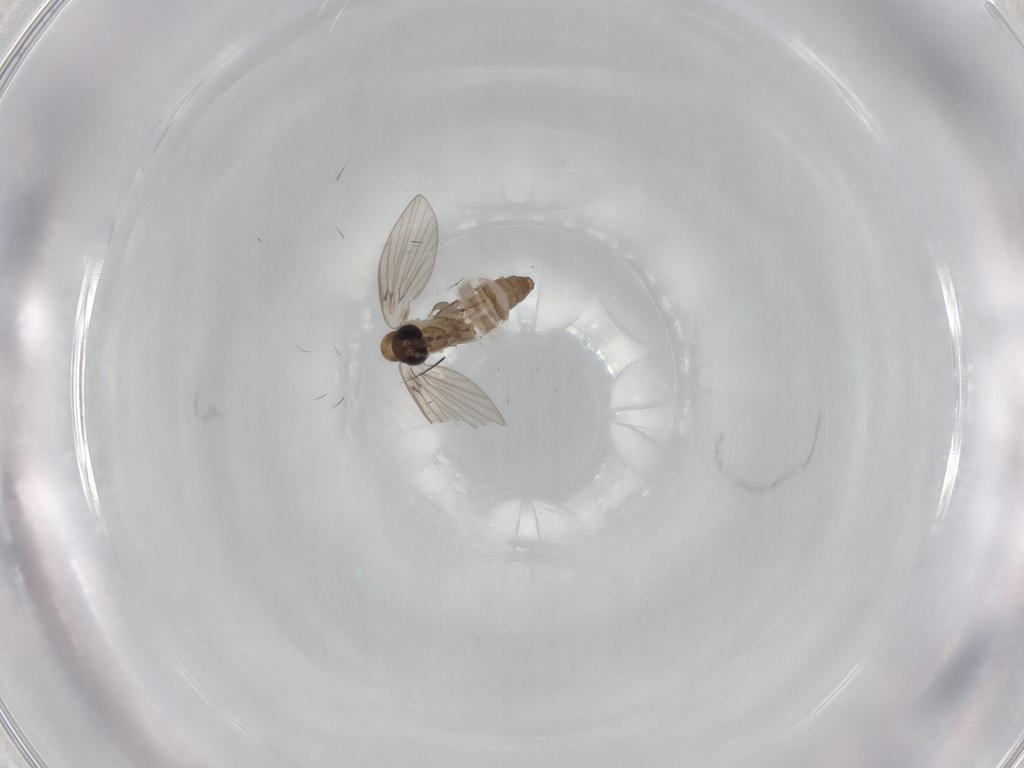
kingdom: Animalia
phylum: Arthropoda
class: Insecta
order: Diptera
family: Psychodidae
